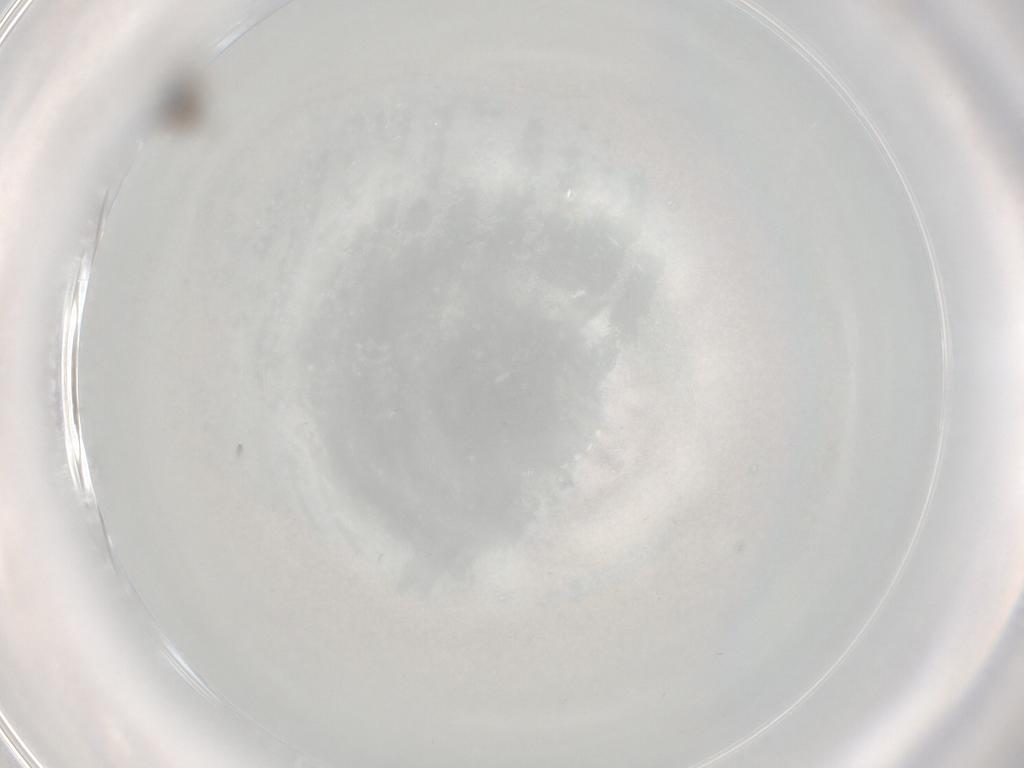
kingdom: Animalia
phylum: Arthropoda
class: Insecta
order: Diptera
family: Cecidomyiidae
